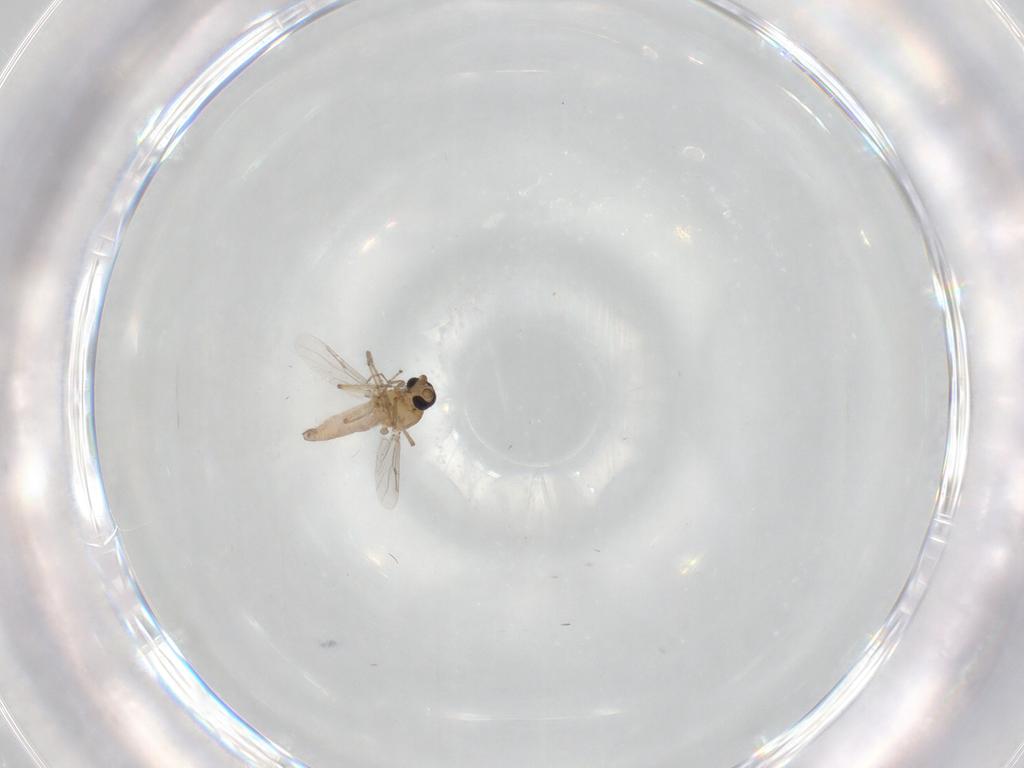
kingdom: Animalia
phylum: Arthropoda
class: Insecta
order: Diptera
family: Ceratopogonidae
